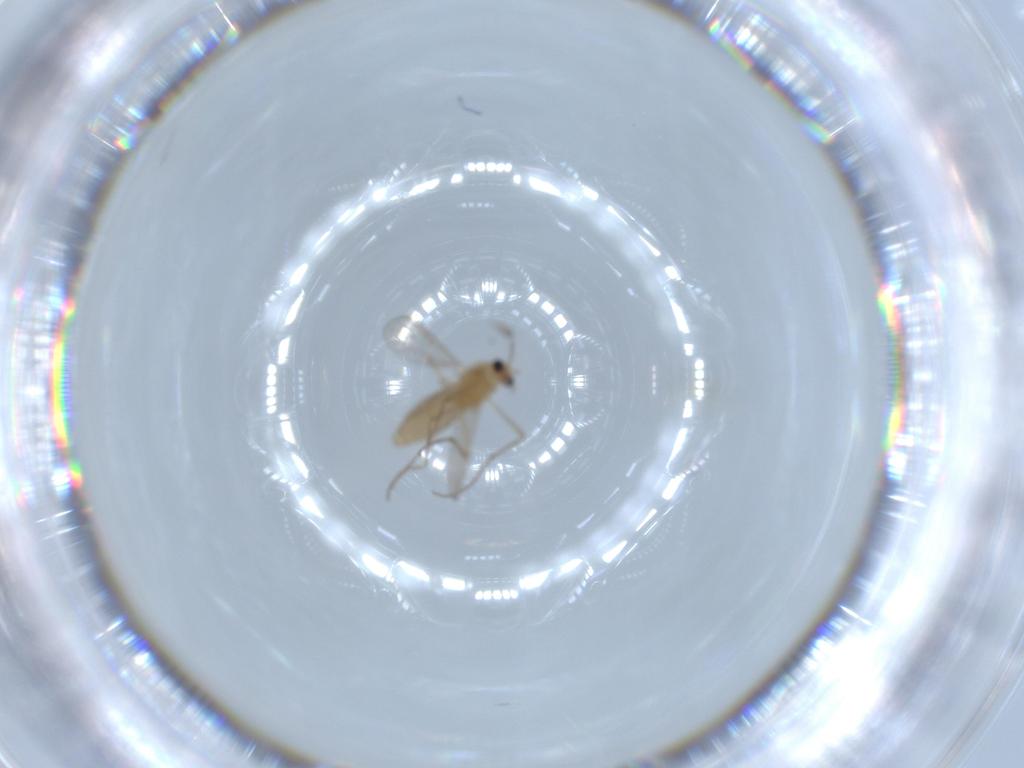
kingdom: Animalia
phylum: Arthropoda
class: Insecta
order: Diptera
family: Chironomidae
